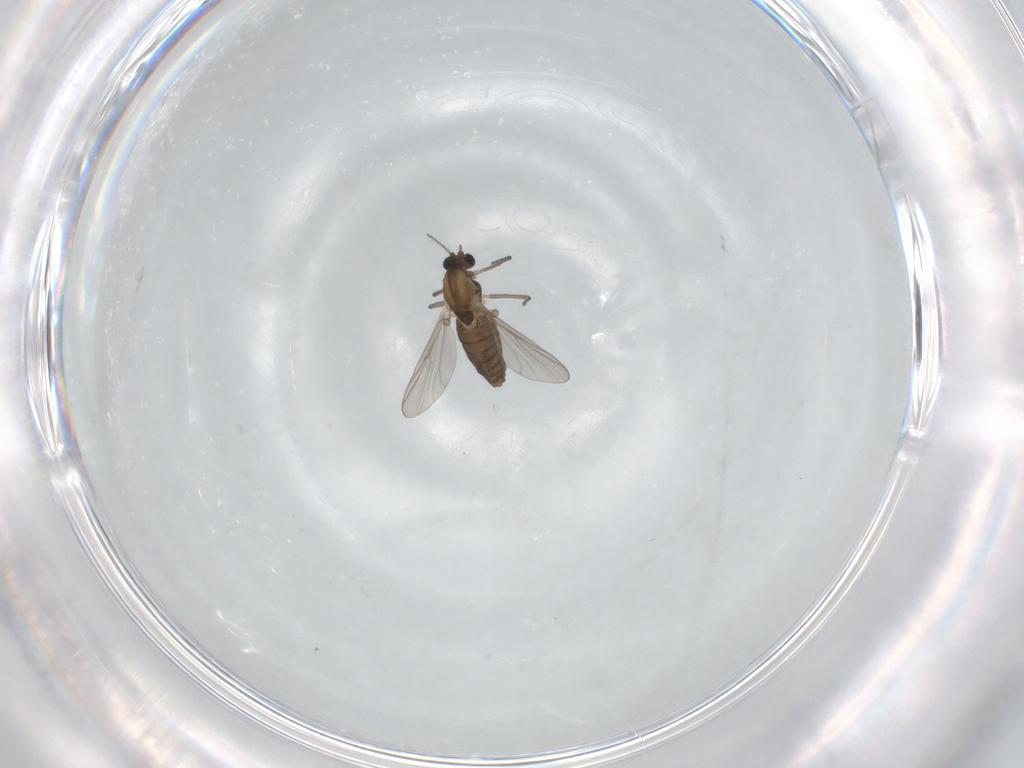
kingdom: Animalia
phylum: Arthropoda
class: Insecta
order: Diptera
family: Chironomidae
